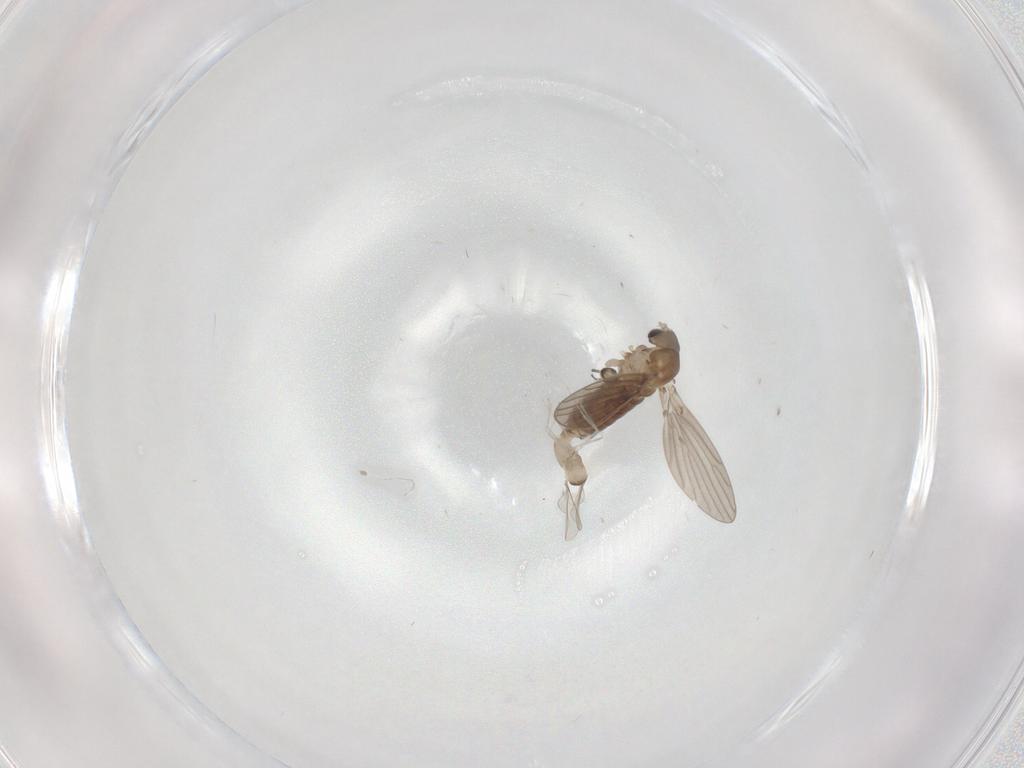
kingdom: Animalia
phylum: Arthropoda
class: Insecta
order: Diptera
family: Cecidomyiidae
